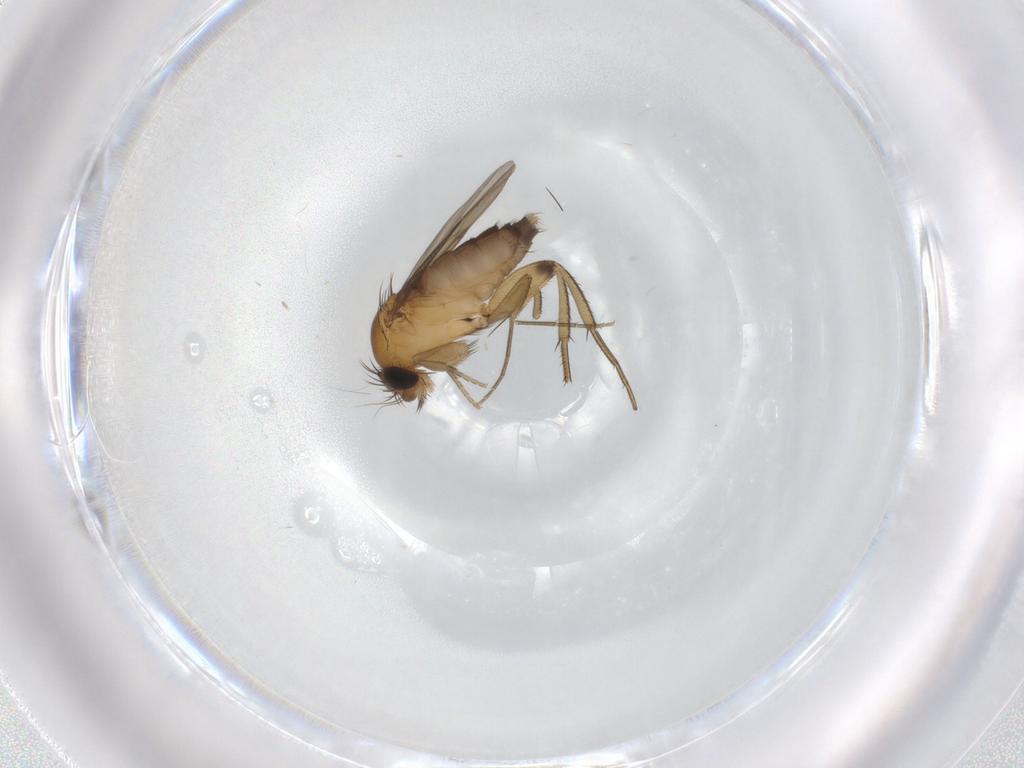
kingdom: Animalia
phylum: Arthropoda
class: Insecta
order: Diptera
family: Phoridae
